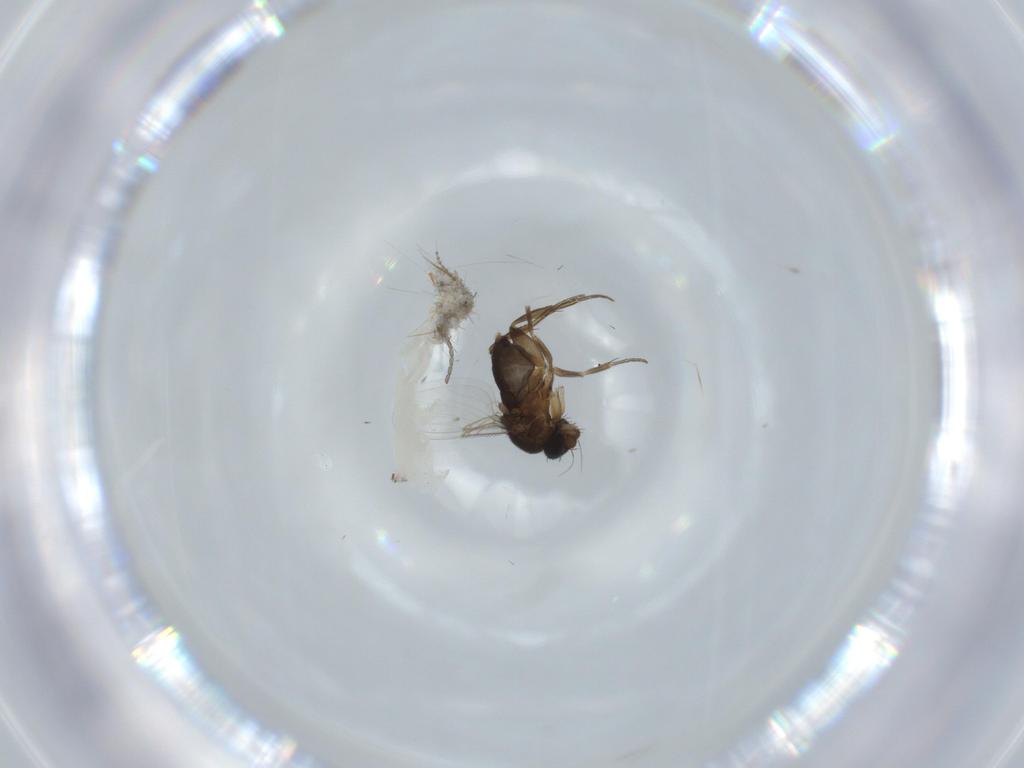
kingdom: Animalia
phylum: Arthropoda
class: Insecta
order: Diptera
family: Phoridae
